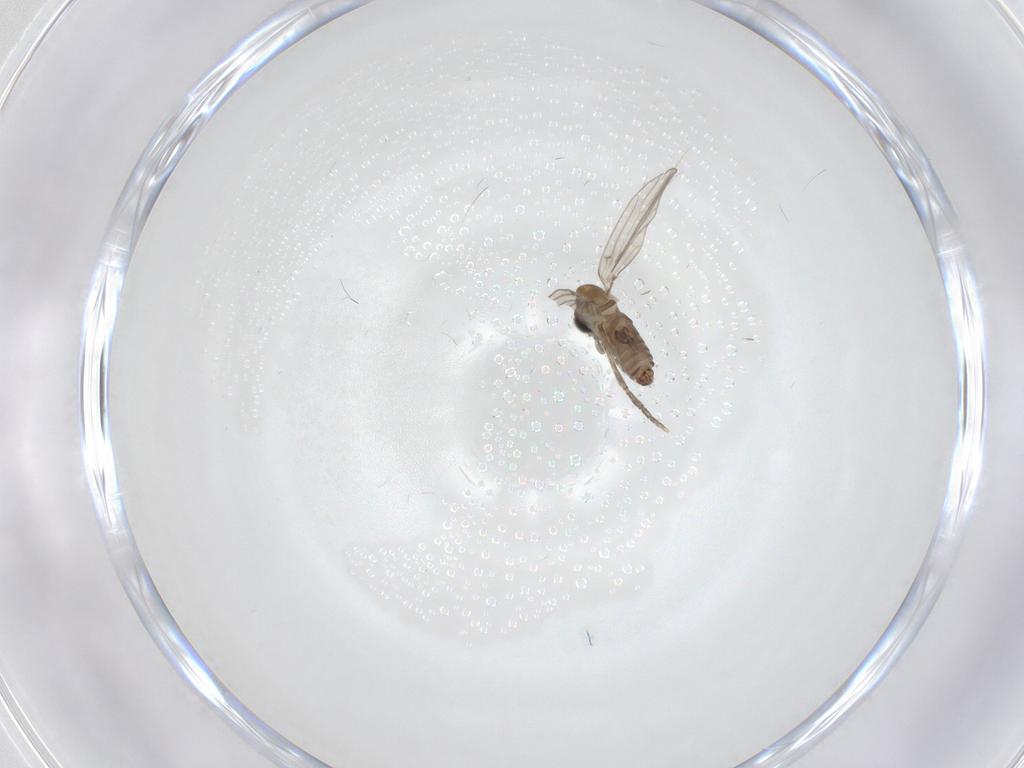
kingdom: Animalia
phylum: Arthropoda
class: Insecta
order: Diptera
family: Psychodidae
